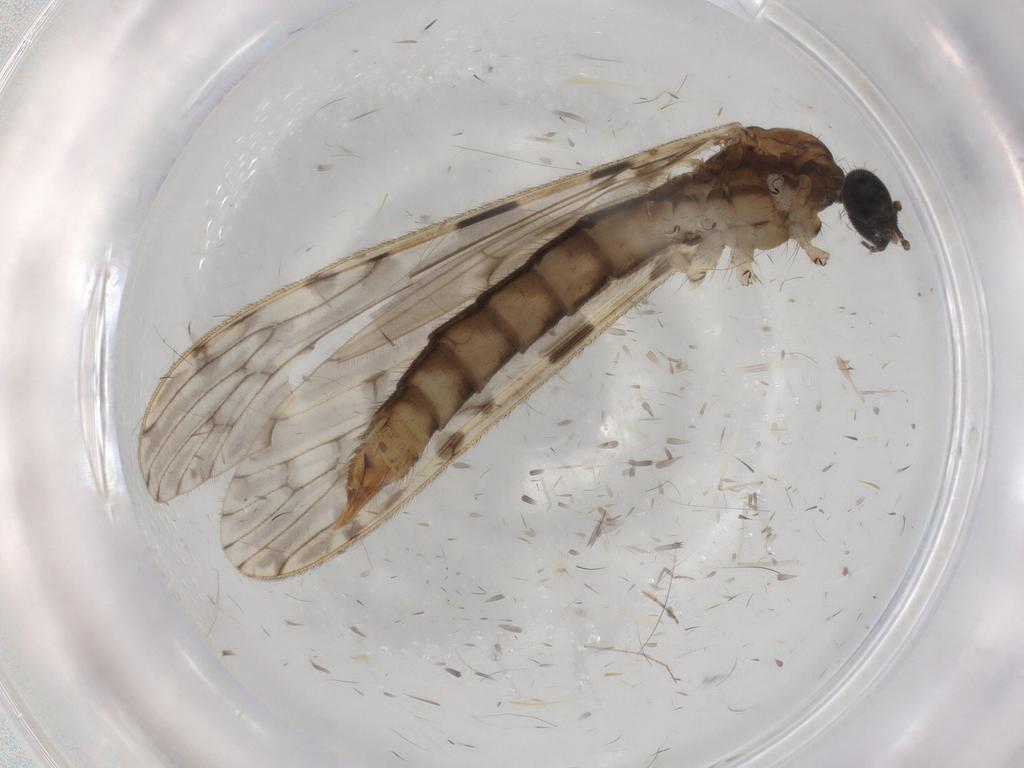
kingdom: Animalia
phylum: Arthropoda
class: Insecta
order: Diptera
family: Chironomidae
